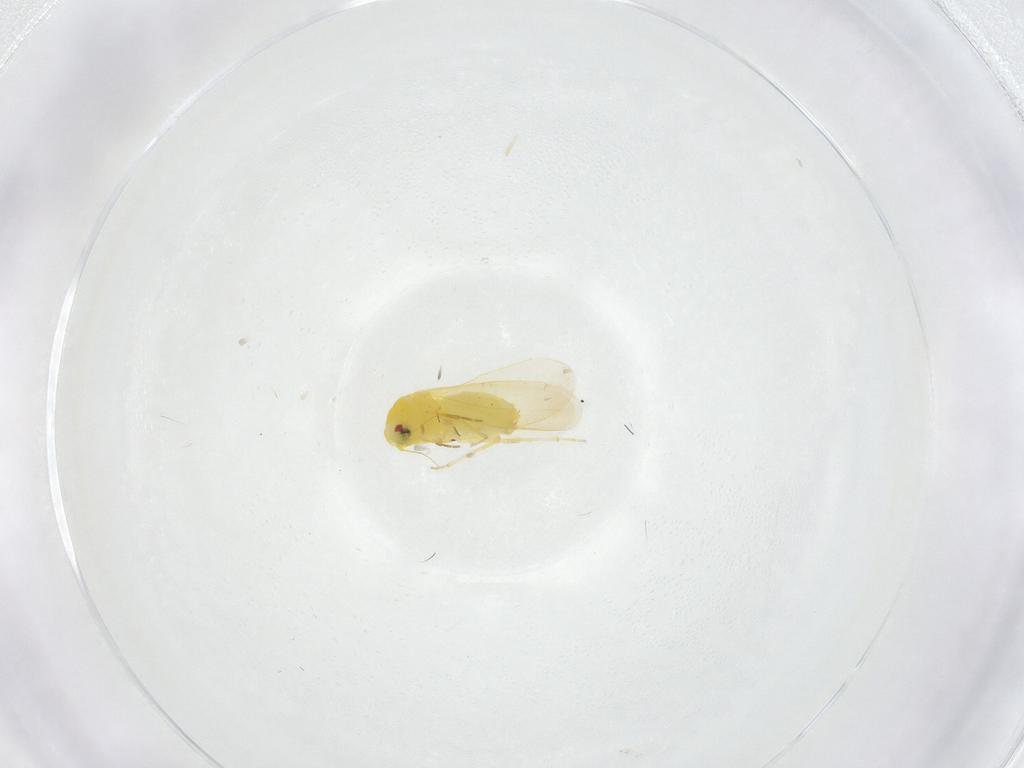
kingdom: Animalia
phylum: Arthropoda
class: Insecta
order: Hemiptera
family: Aleyrodidae
